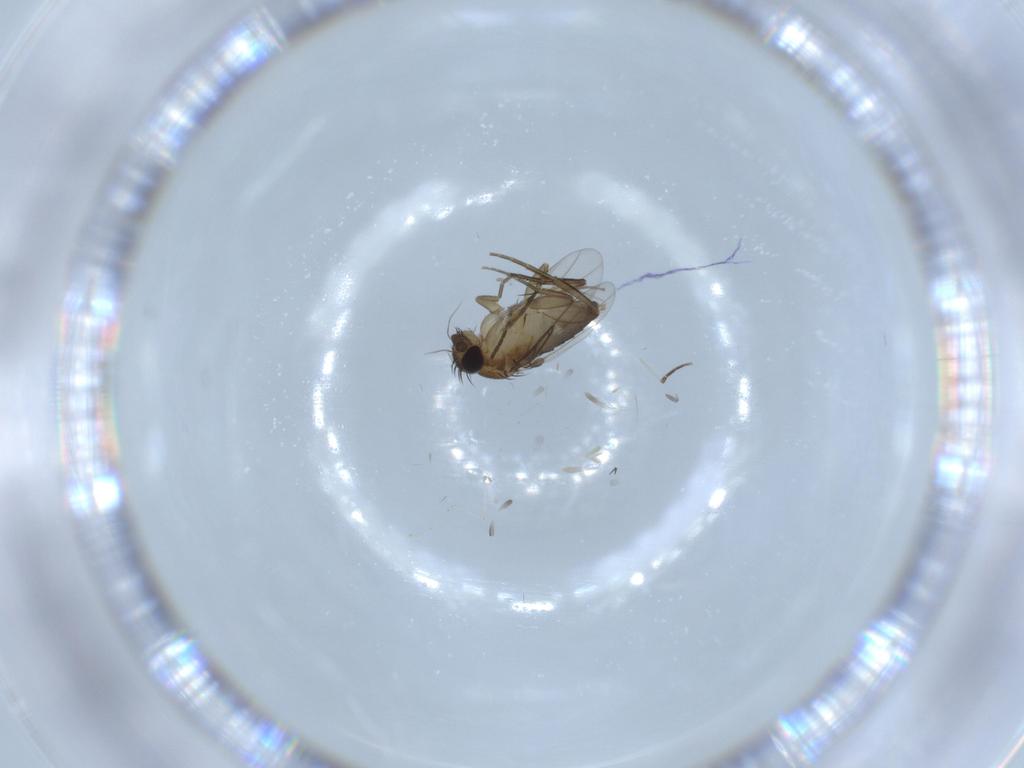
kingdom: Animalia
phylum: Arthropoda
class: Insecta
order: Diptera
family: Phoridae
